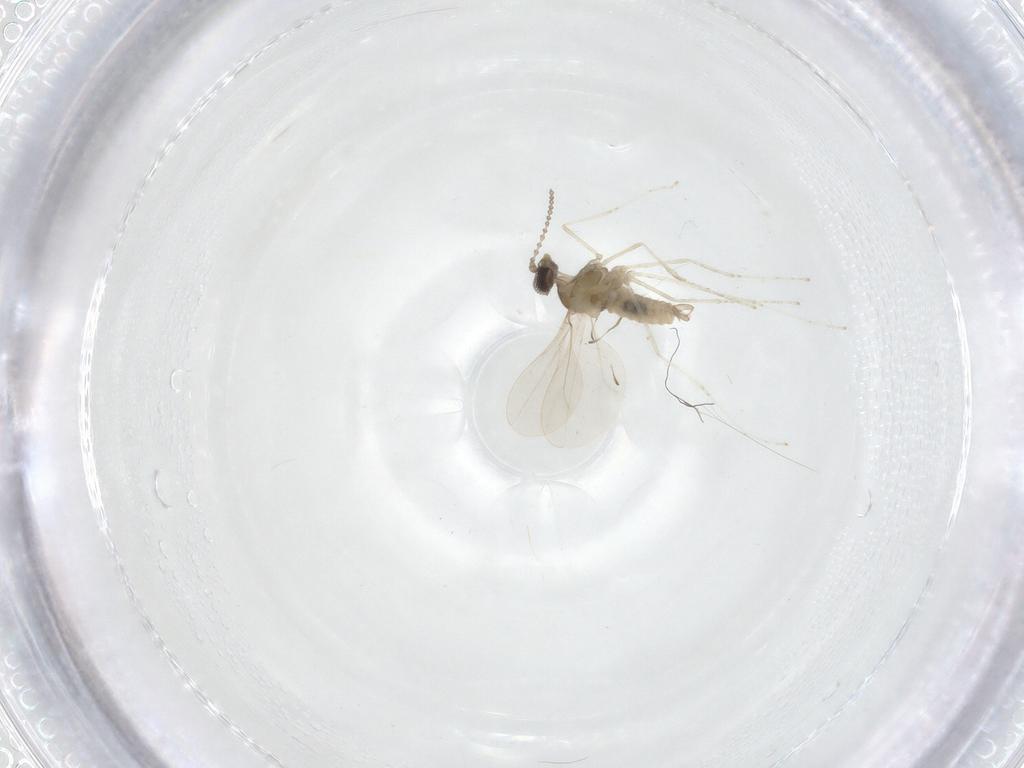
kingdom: Animalia
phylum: Arthropoda
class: Insecta
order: Diptera
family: Cecidomyiidae
